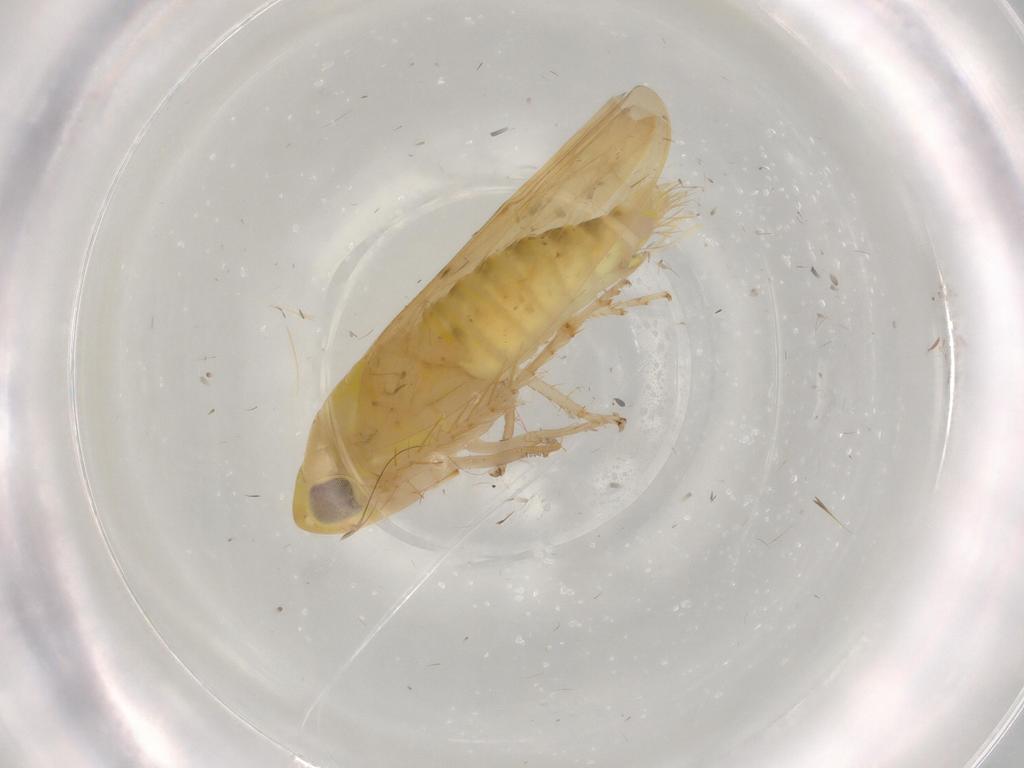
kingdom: Animalia
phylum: Arthropoda
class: Insecta
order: Hemiptera
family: Cicadellidae
